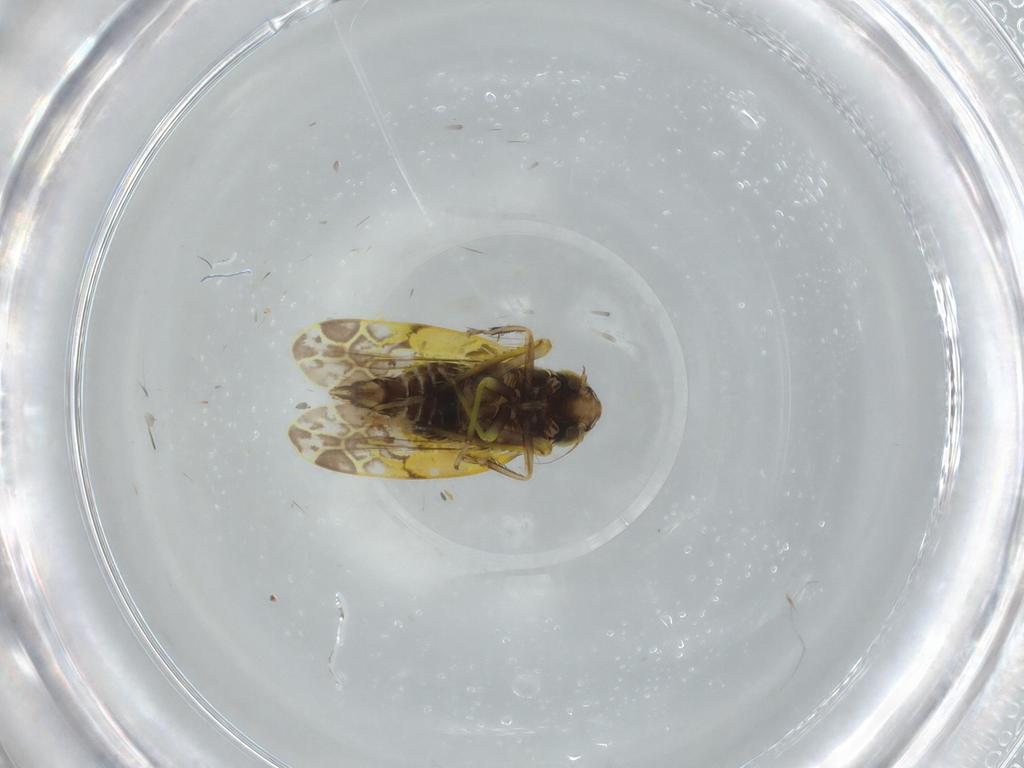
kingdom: Animalia
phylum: Arthropoda
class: Insecta
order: Hemiptera
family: Cicadellidae
